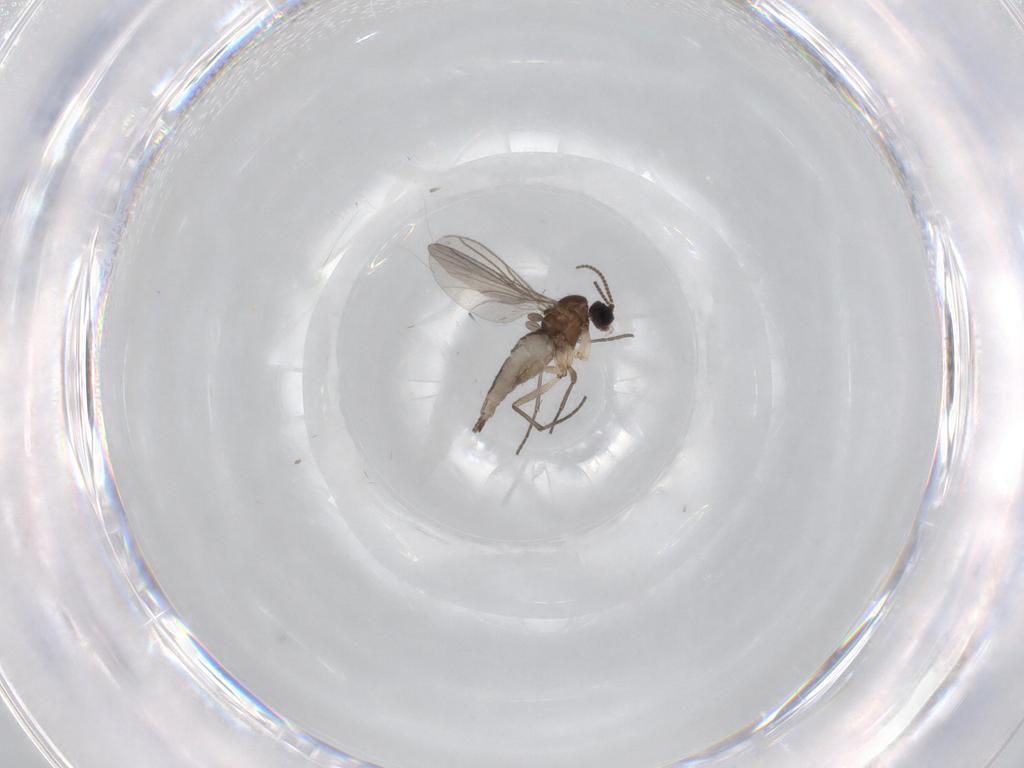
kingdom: Animalia
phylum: Arthropoda
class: Insecta
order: Diptera
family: Sciaridae
